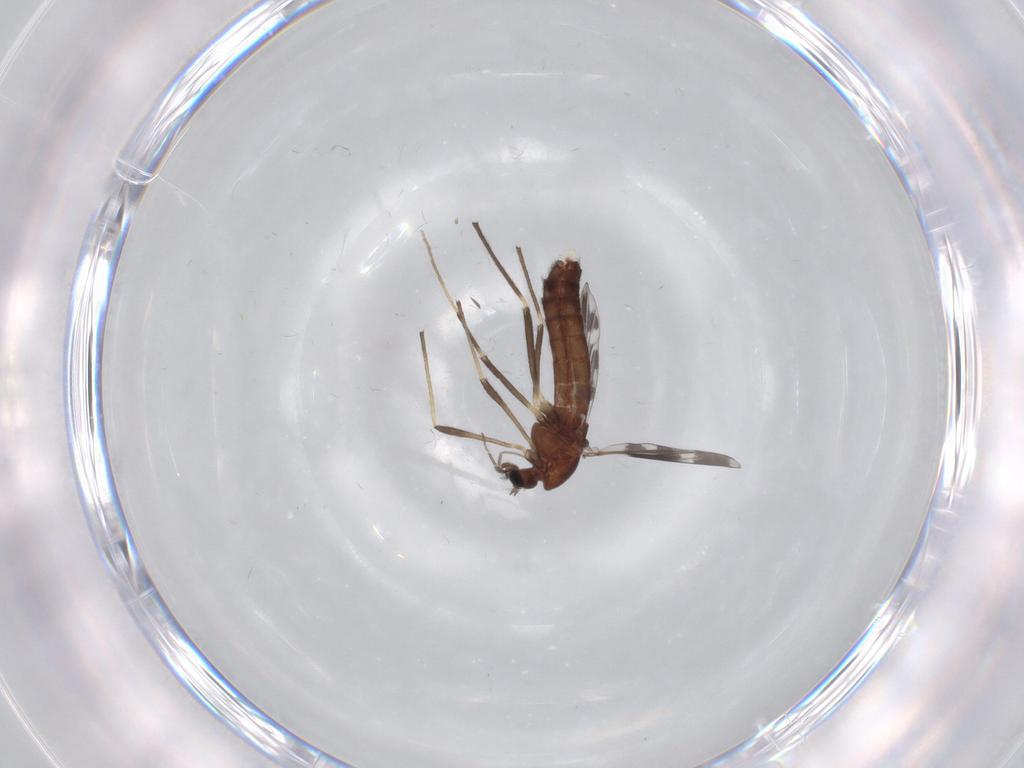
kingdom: Animalia
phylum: Arthropoda
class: Insecta
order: Diptera
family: Chironomidae
